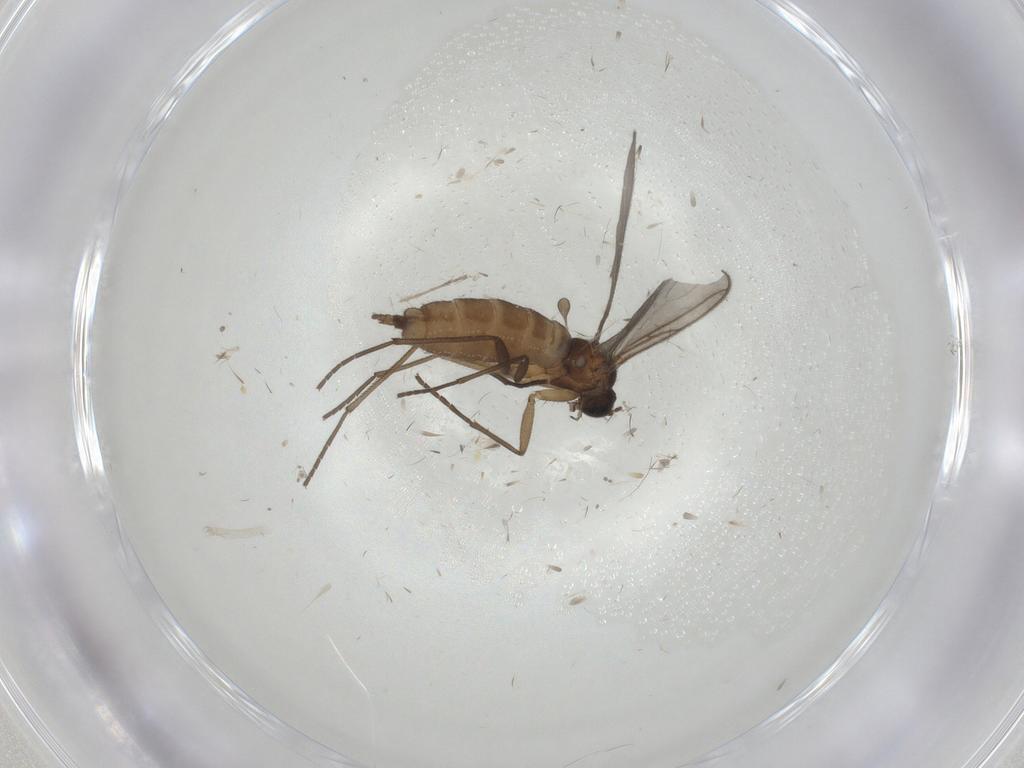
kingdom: Animalia
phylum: Arthropoda
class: Insecta
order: Diptera
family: Sciaridae
